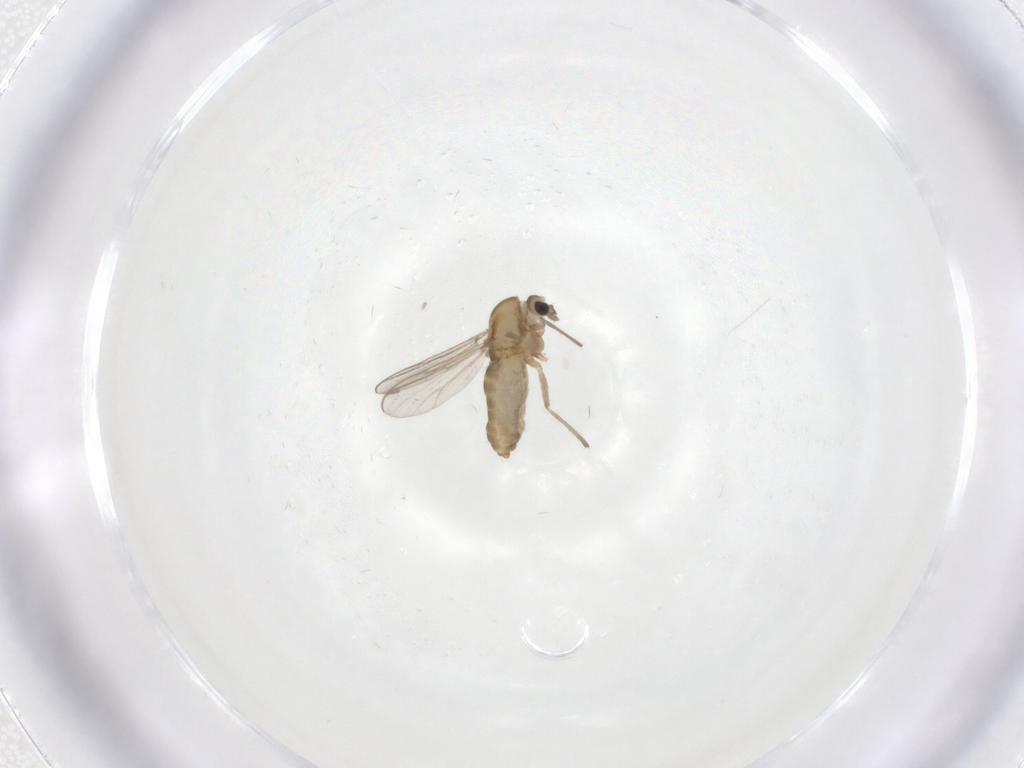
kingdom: Animalia
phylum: Arthropoda
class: Insecta
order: Diptera
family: Chironomidae
